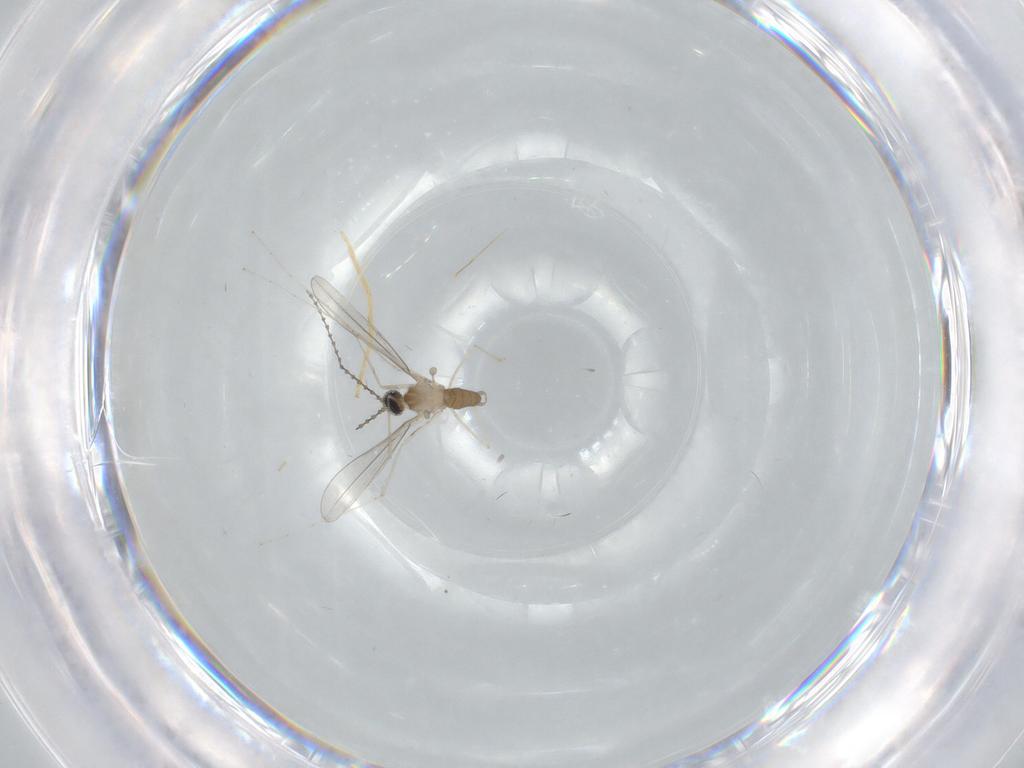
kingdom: Animalia
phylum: Arthropoda
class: Insecta
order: Diptera
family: Cecidomyiidae
